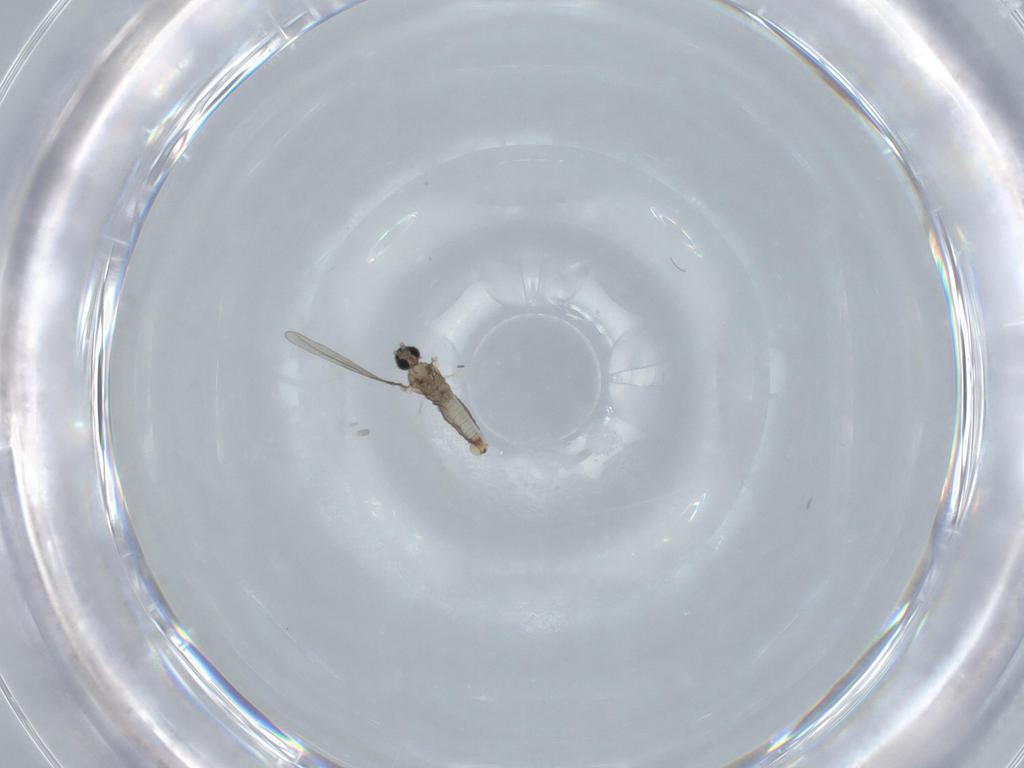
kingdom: Animalia
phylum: Arthropoda
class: Insecta
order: Diptera
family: Cecidomyiidae
